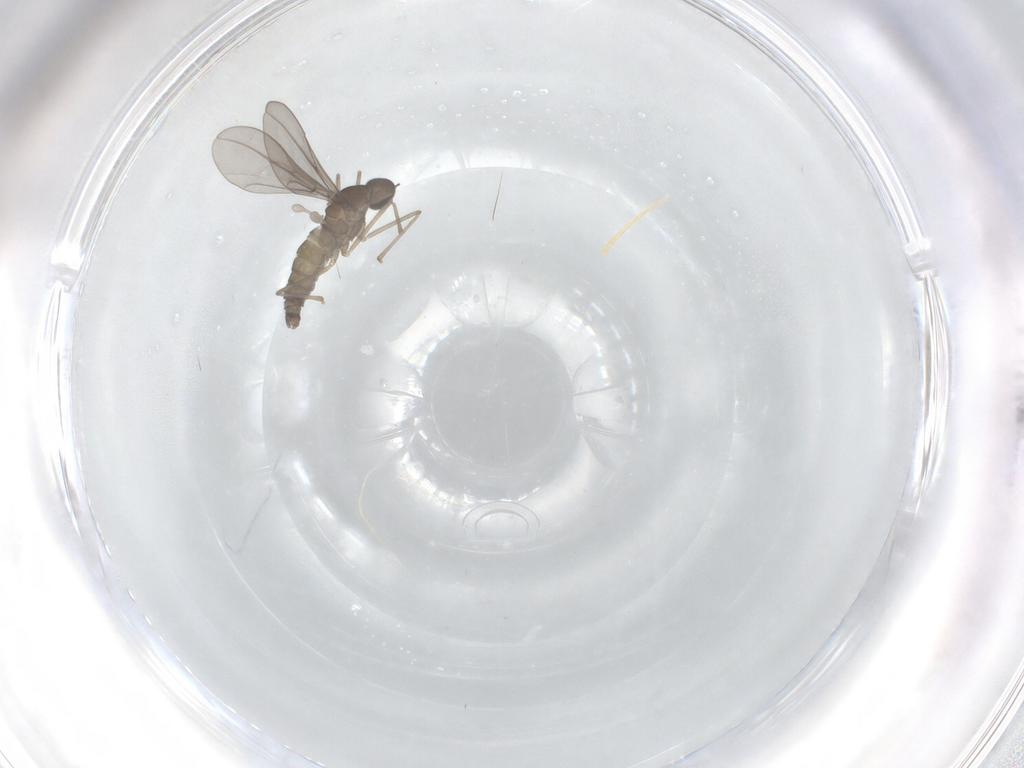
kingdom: Animalia
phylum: Arthropoda
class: Insecta
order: Diptera
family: Cecidomyiidae
